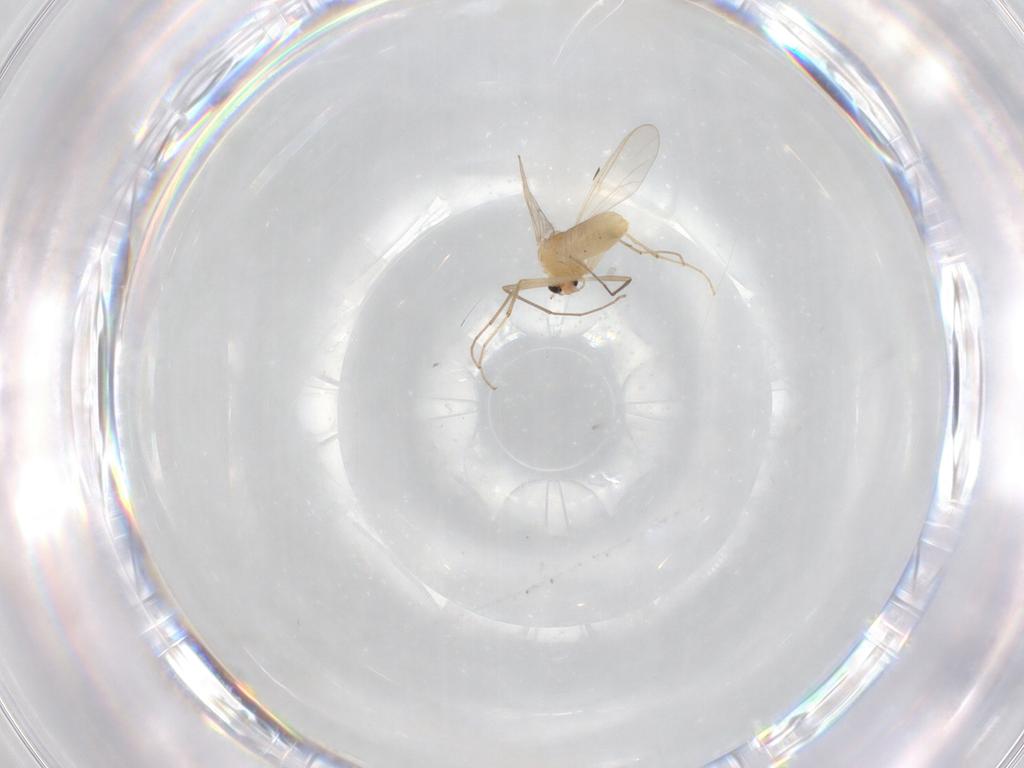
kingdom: Animalia
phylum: Arthropoda
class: Insecta
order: Diptera
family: Chironomidae
